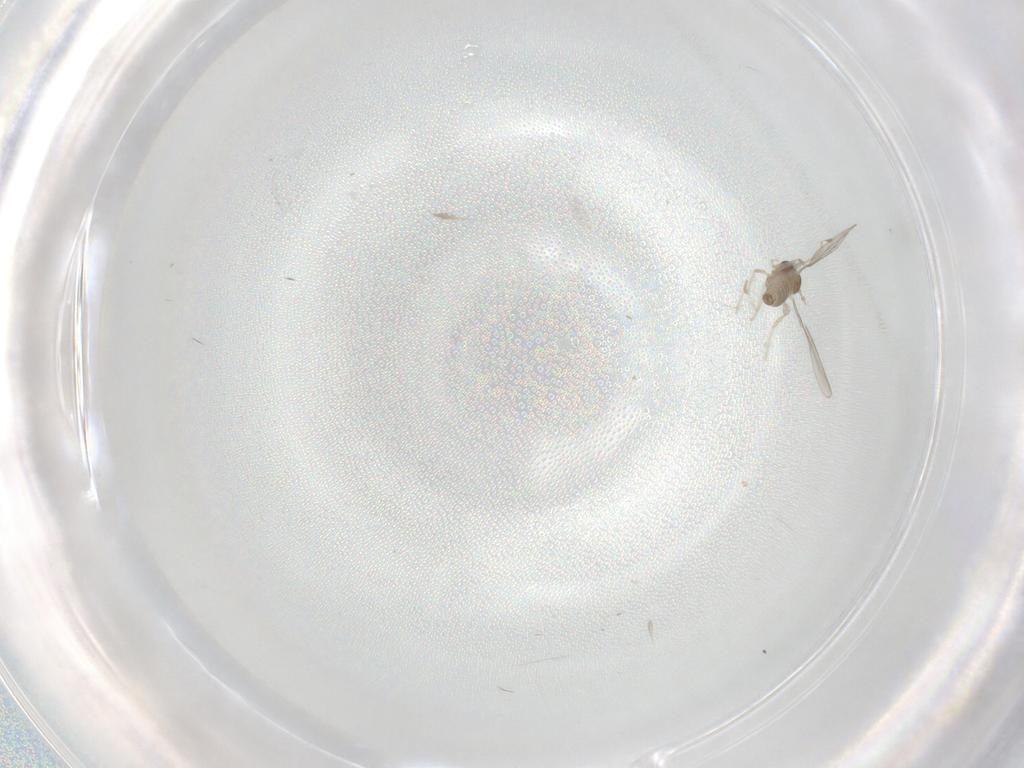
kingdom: Animalia
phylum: Arthropoda
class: Insecta
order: Diptera
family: Cecidomyiidae
